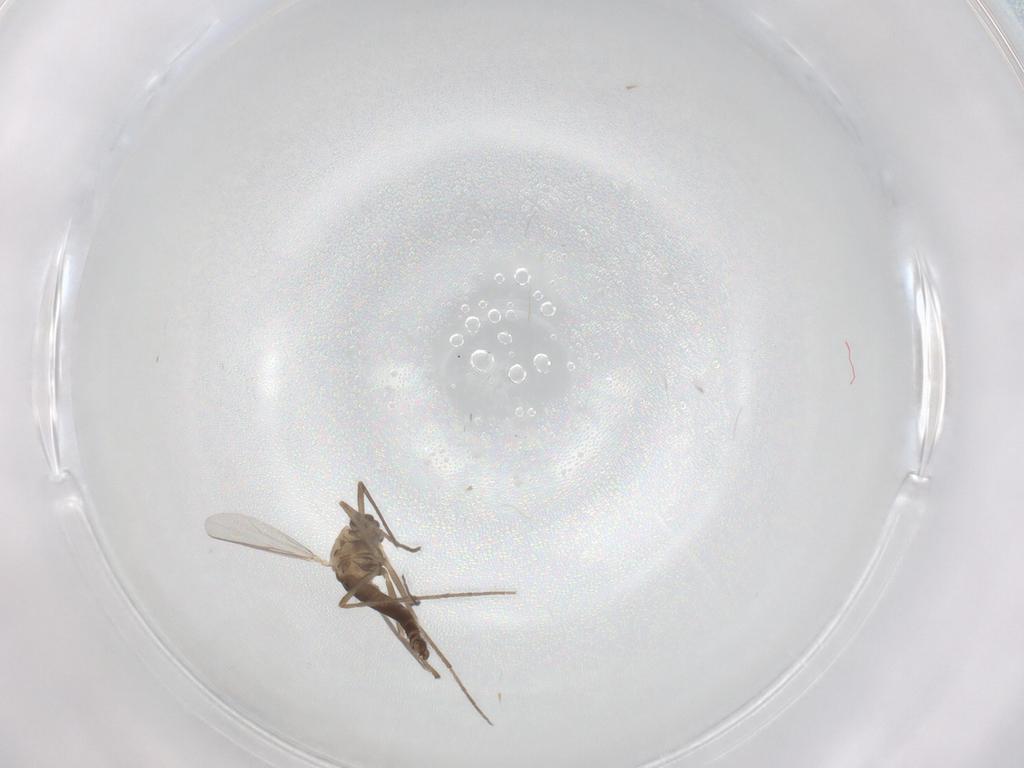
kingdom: Animalia
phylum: Arthropoda
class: Insecta
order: Diptera
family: Chironomidae
